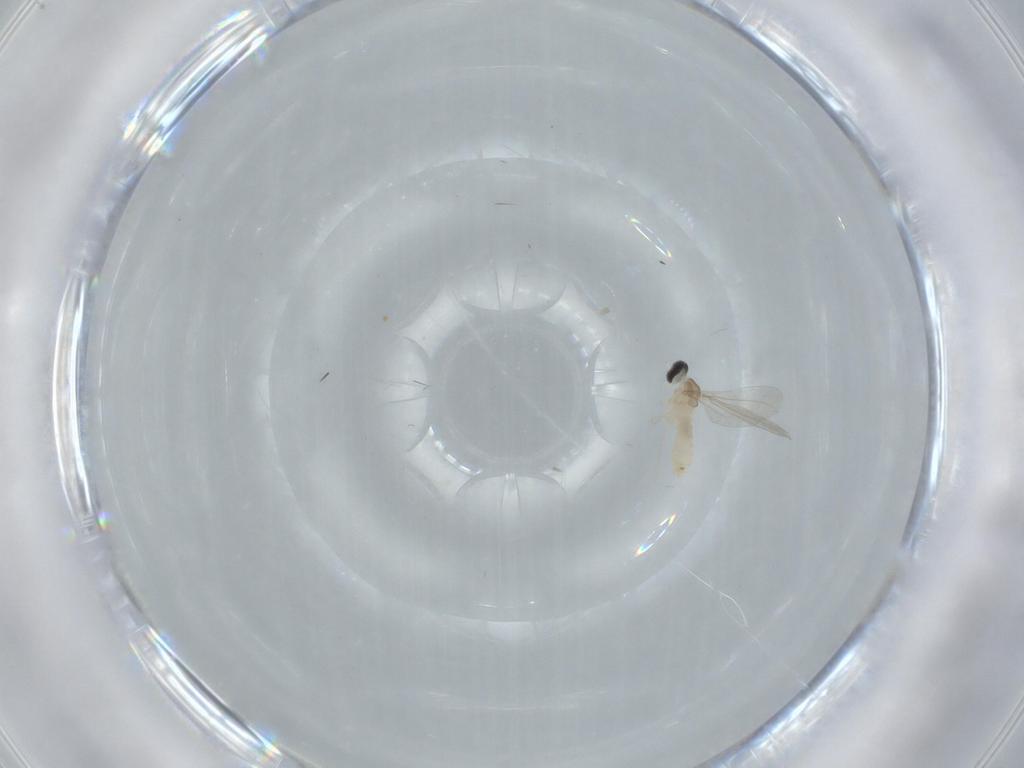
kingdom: Animalia
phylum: Arthropoda
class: Insecta
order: Diptera
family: Cecidomyiidae
